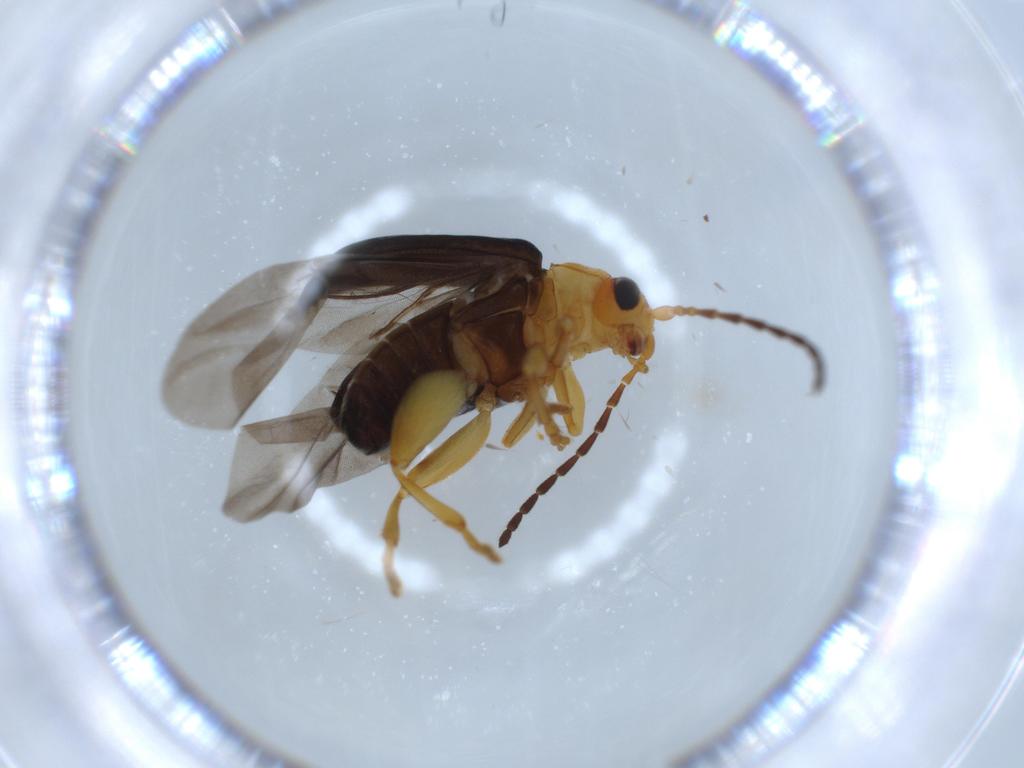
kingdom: Animalia
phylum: Arthropoda
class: Insecta
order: Coleoptera
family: Chrysomelidae
